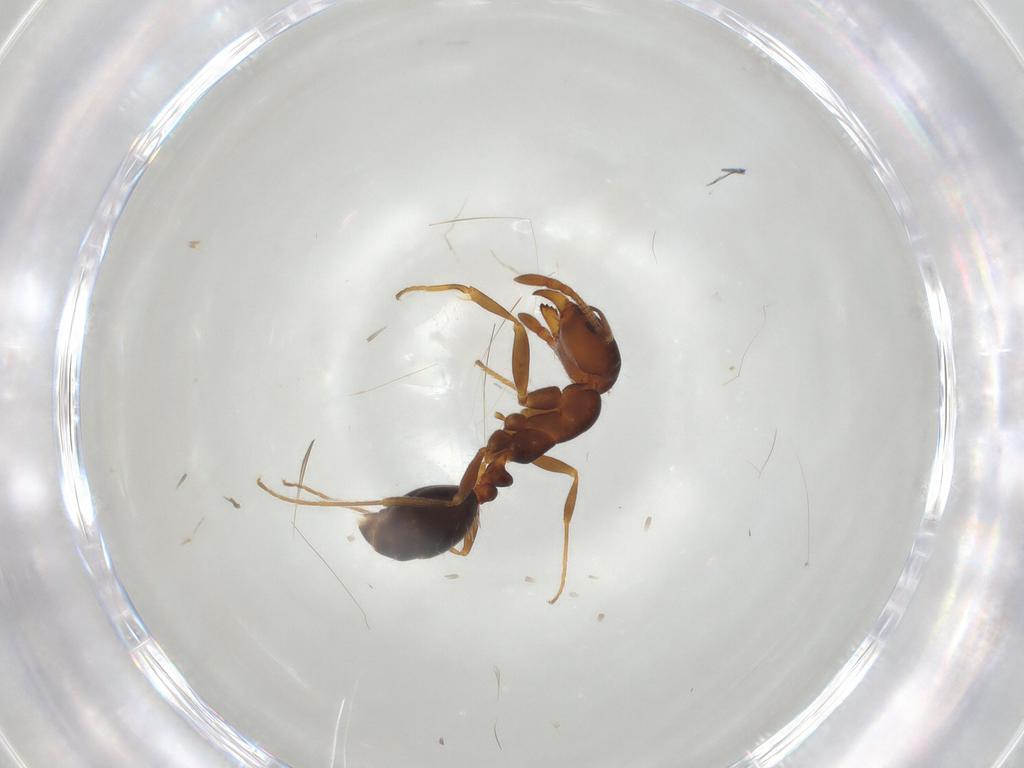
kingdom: Animalia
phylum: Arthropoda
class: Insecta
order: Hymenoptera
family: Formicidae
